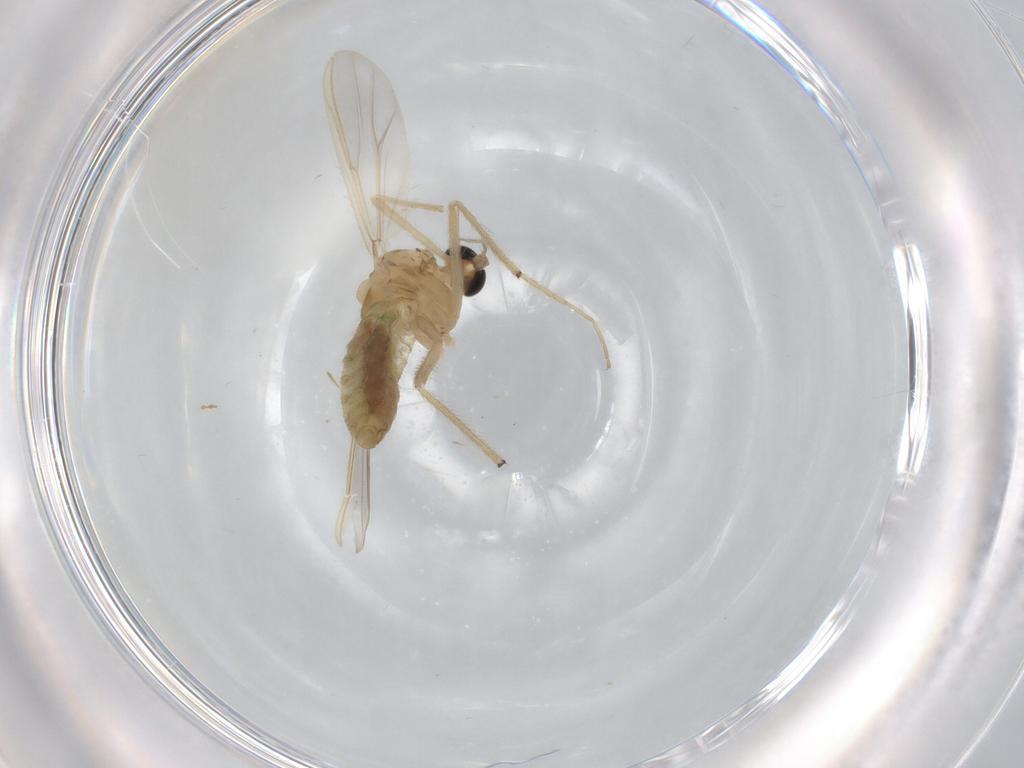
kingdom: Animalia
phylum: Arthropoda
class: Insecta
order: Diptera
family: Chironomidae
